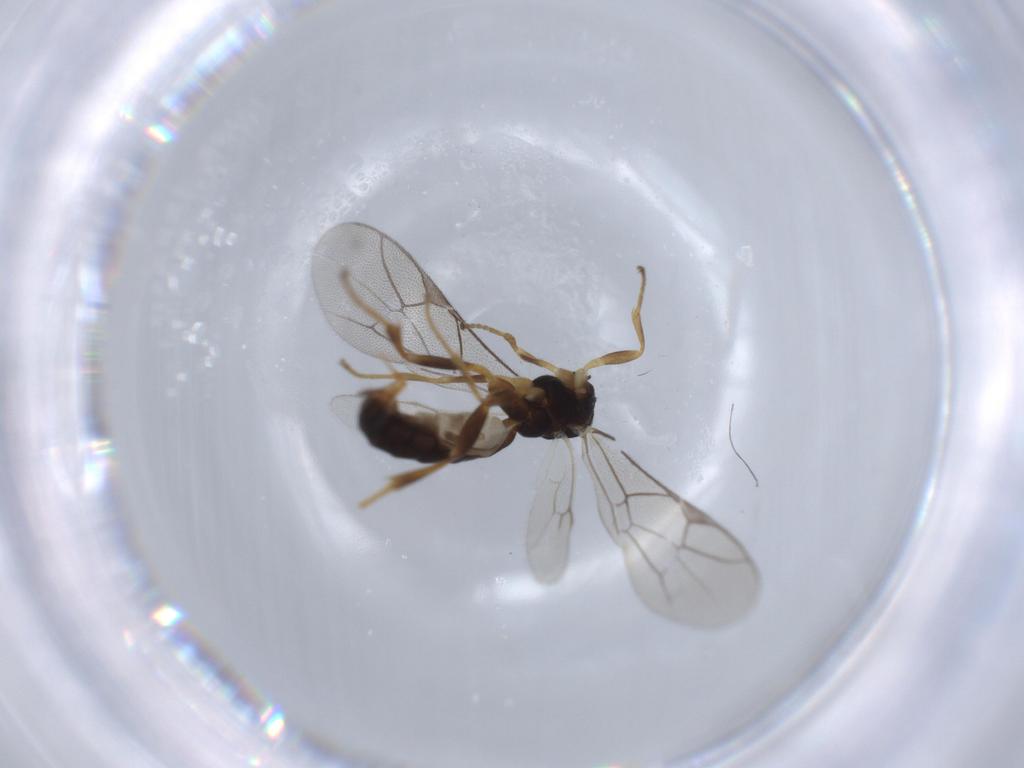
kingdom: Animalia
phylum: Arthropoda
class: Insecta
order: Hymenoptera
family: Ichneumonidae
